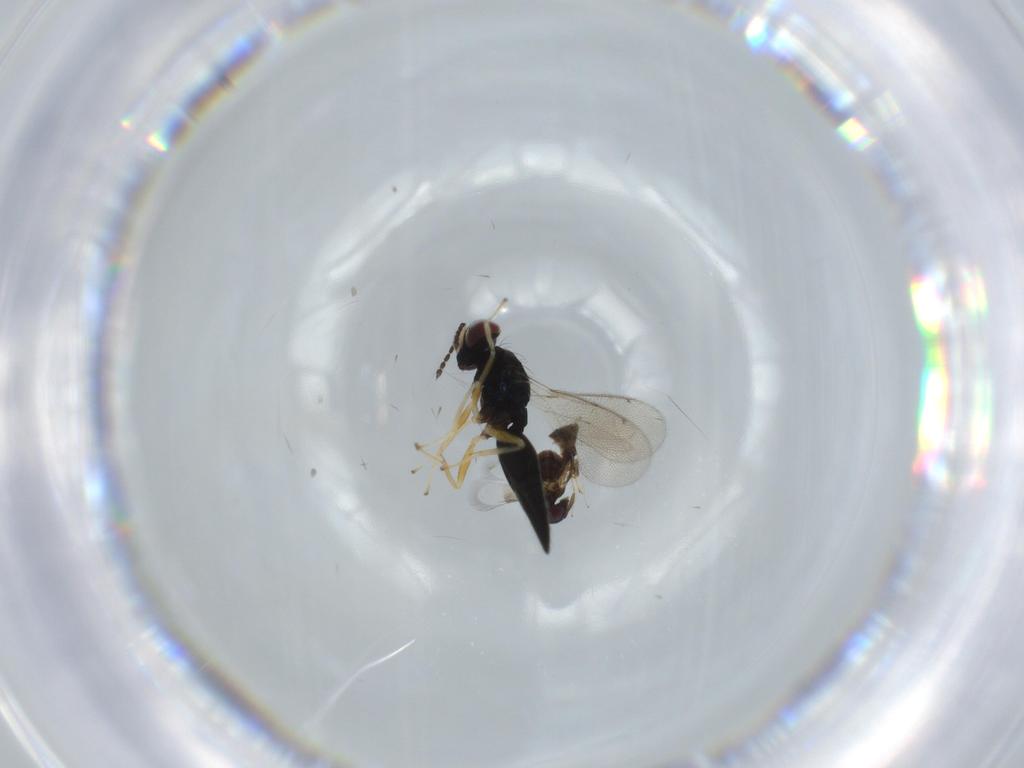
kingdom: Animalia
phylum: Arthropoda
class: Insecta
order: Hymenoptera
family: Signiphoridae
